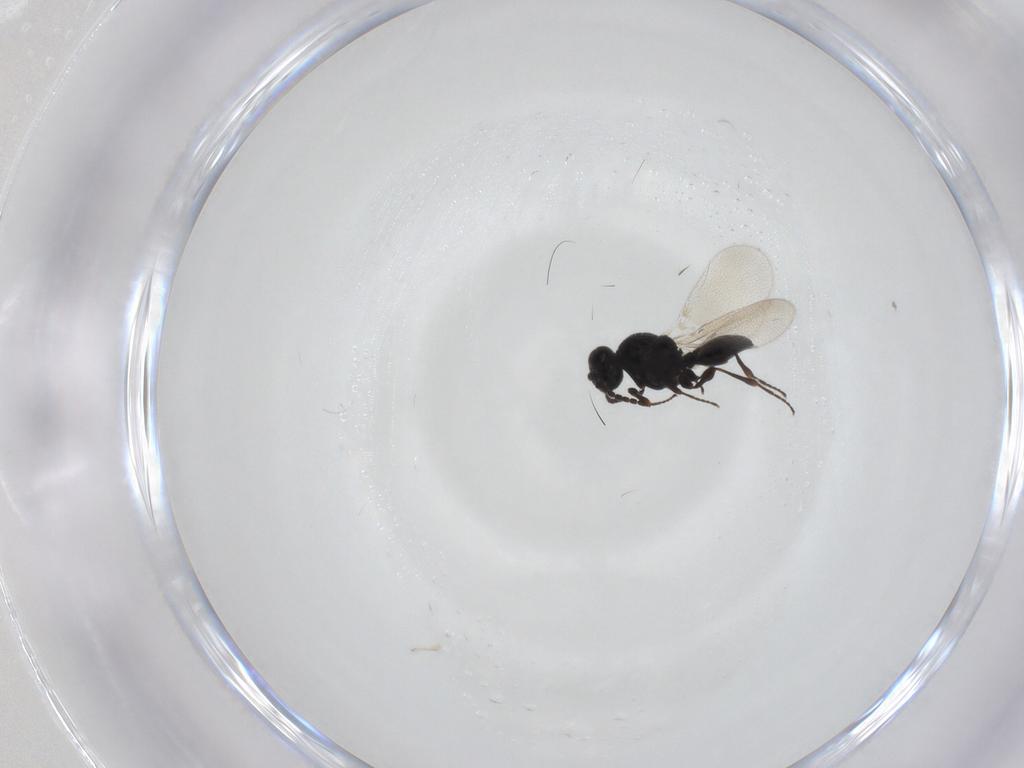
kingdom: Animalia
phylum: Arthropoda
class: Insecta
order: Hymenoptera
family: Platygastridae
